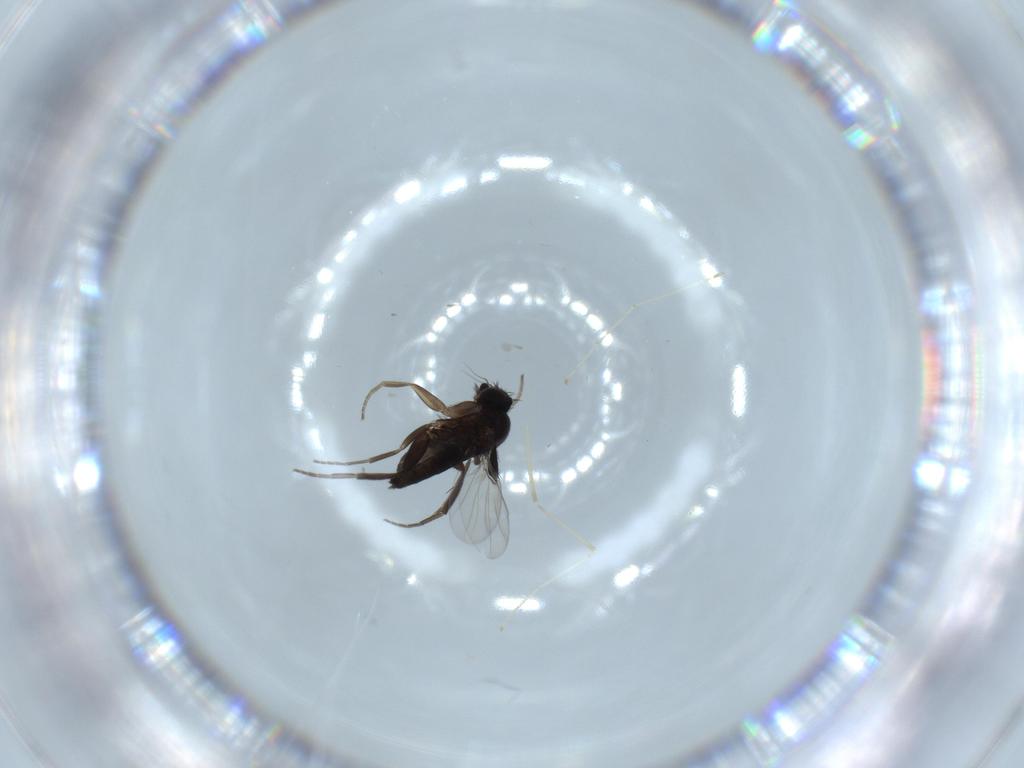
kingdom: Animalia
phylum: Arthropoda
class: Insecta
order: Diptera
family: Phoridae
